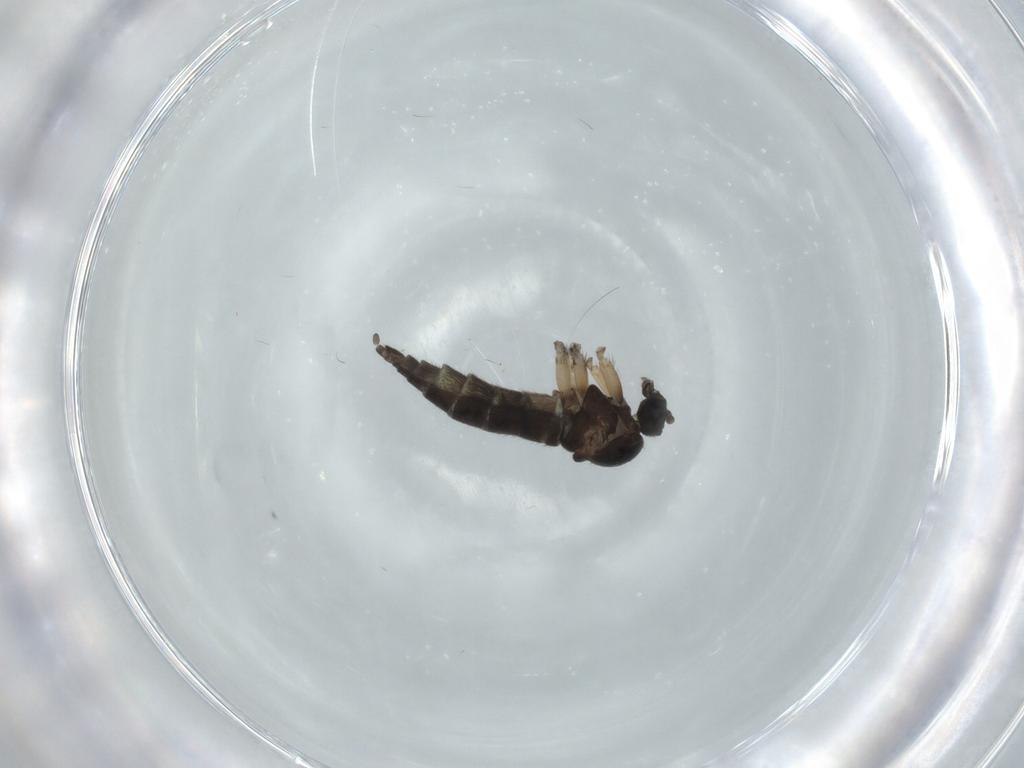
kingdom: Animalia
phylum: Arthropoda
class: Insecta
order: Diptera
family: Sciaridae
